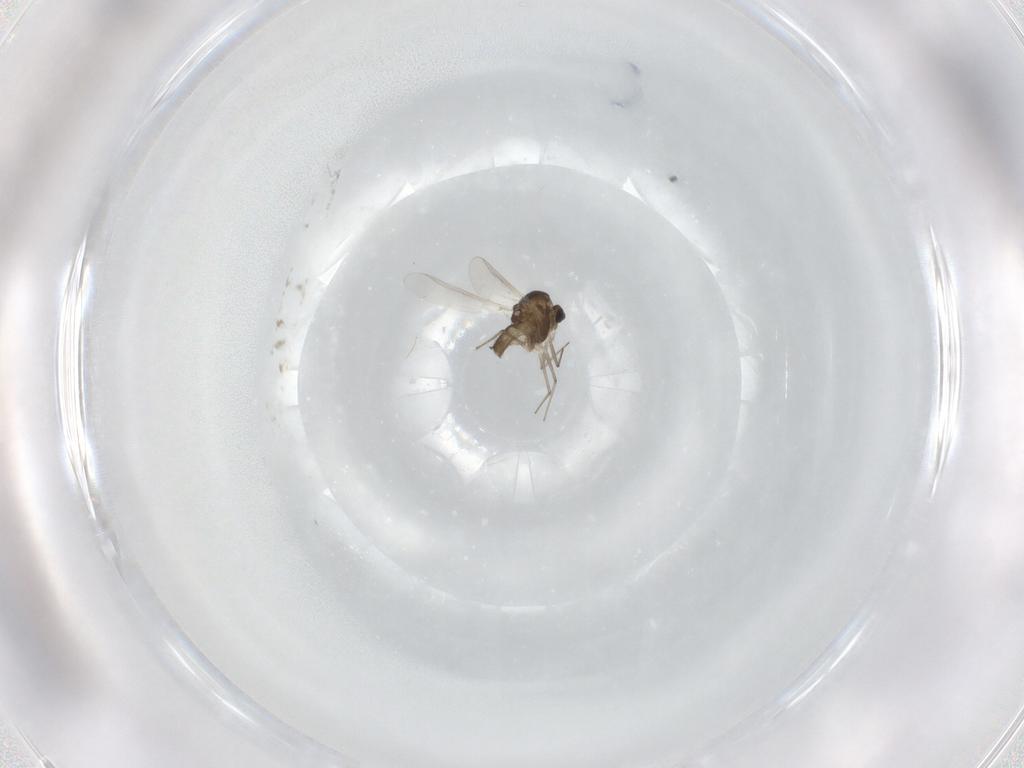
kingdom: Animalia
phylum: Arthropoda
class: Insecta
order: Diptera
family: Chironomidae
